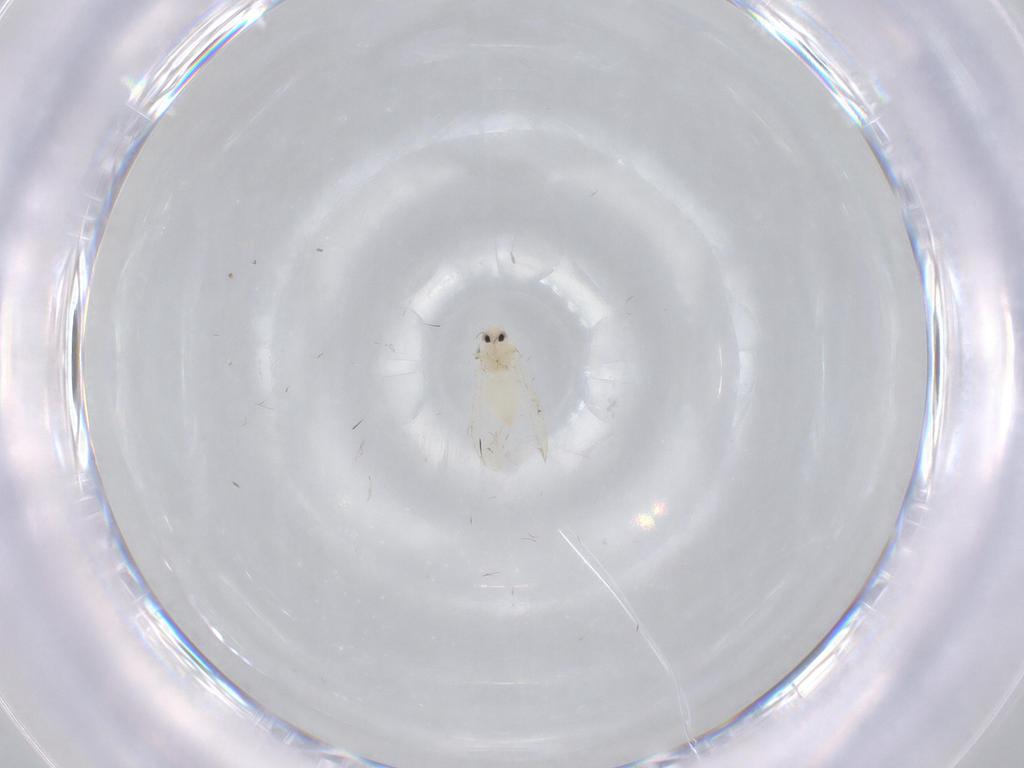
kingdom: Animalia
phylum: Arthropoda
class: Insecta
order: Hemiptera
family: Aleyrodidae
